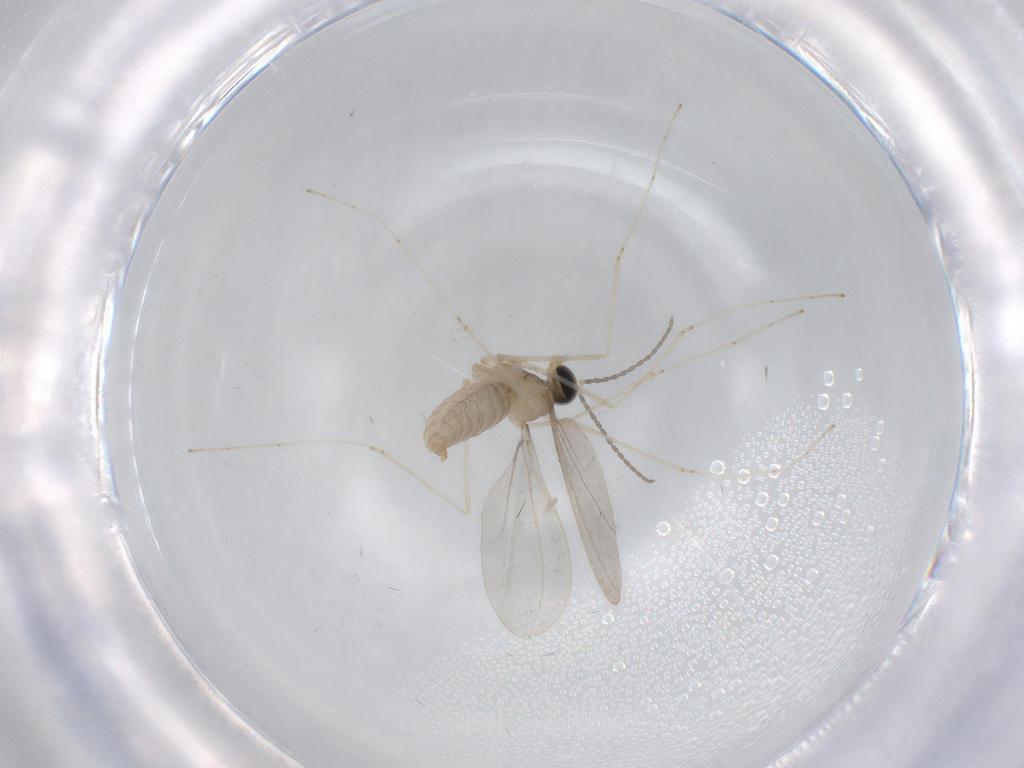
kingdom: Animalia
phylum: Arthropoda
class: Insecta
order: Diptera
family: Cecidomyiidae
